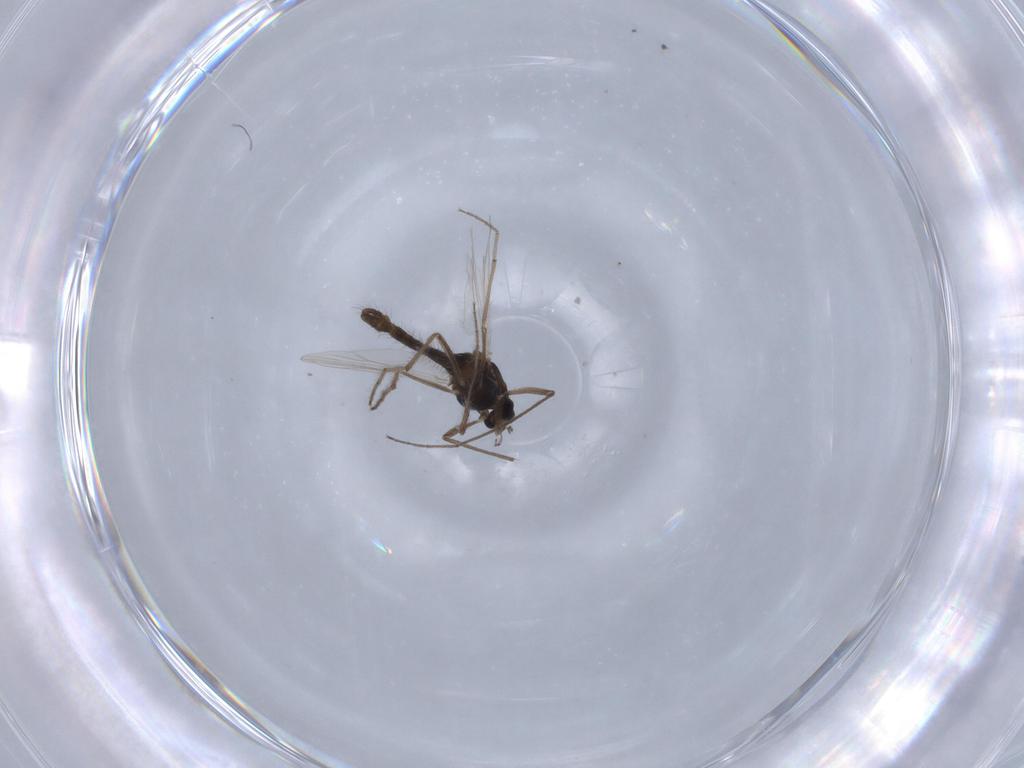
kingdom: Animalia
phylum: Arthropoda
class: Insecta
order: Diptera
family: Chironomidae
